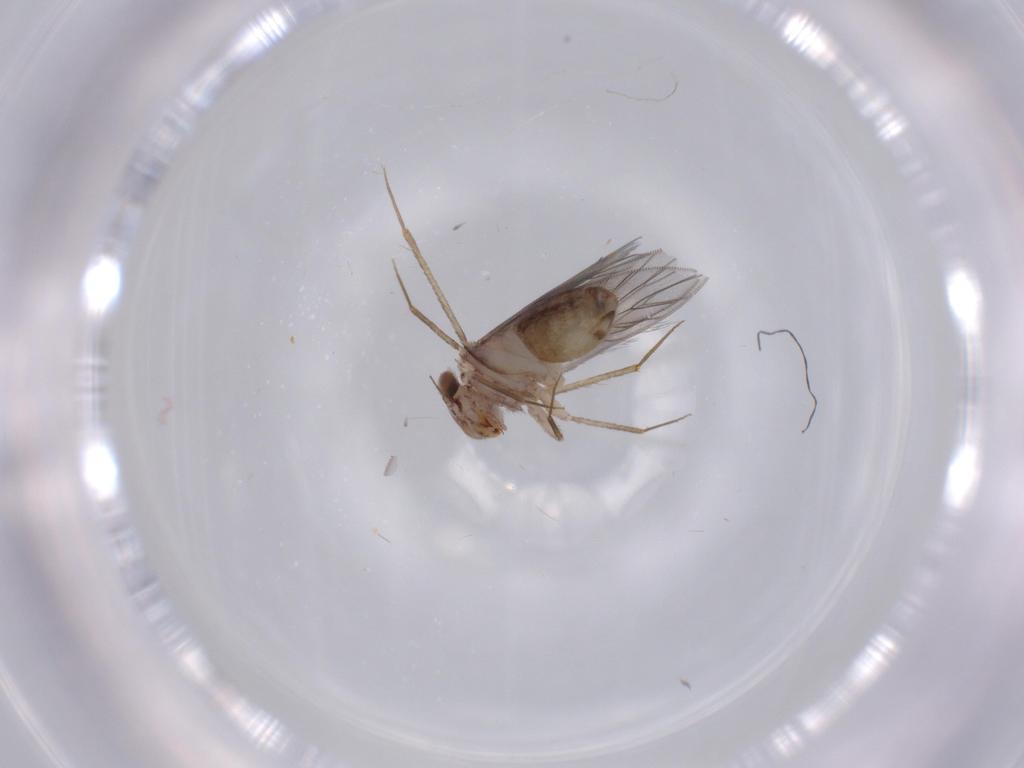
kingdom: Animalia
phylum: Arthropoda
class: Insecta
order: Psocodea
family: Lepidopsocidae
